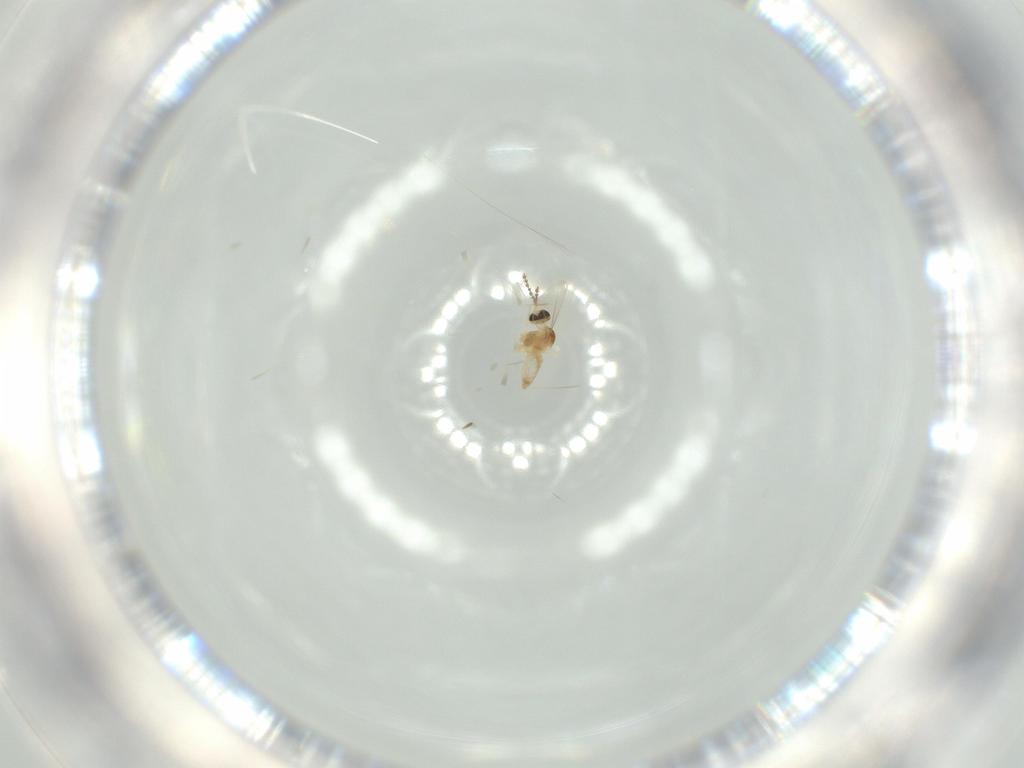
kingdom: Animalia
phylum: Arthropoda
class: Insecta
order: Diptera
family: Cecidomyiidae
